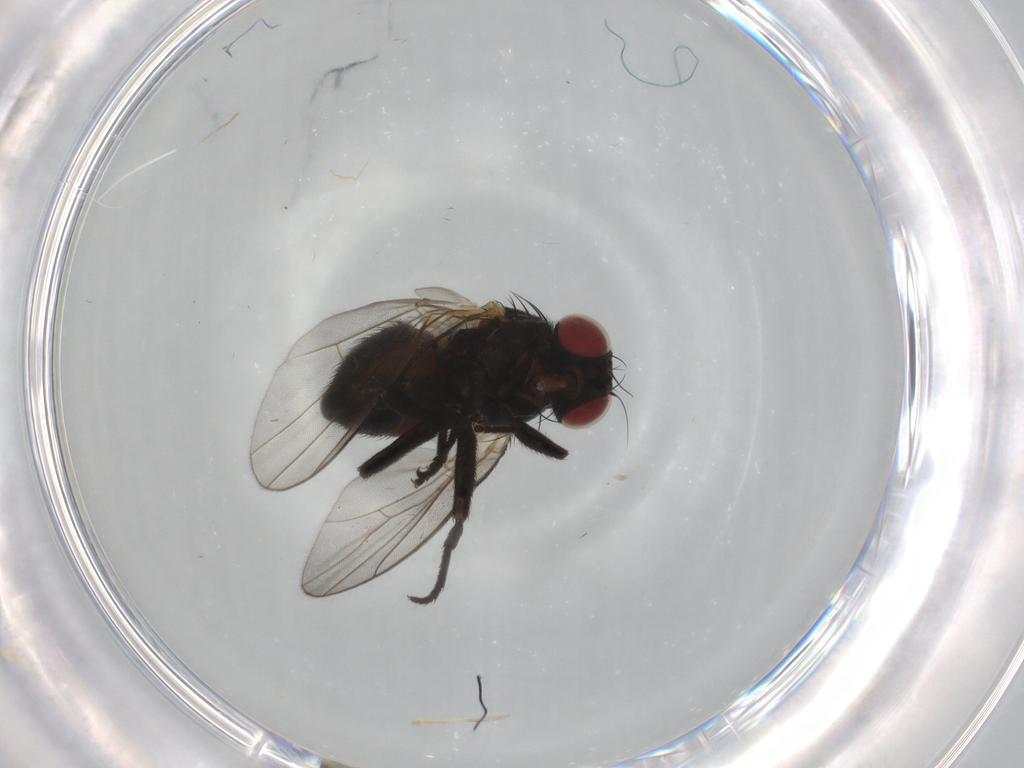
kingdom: Animalia
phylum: Arthropoda
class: Insecta
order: Diptera
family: Agromyzidae
